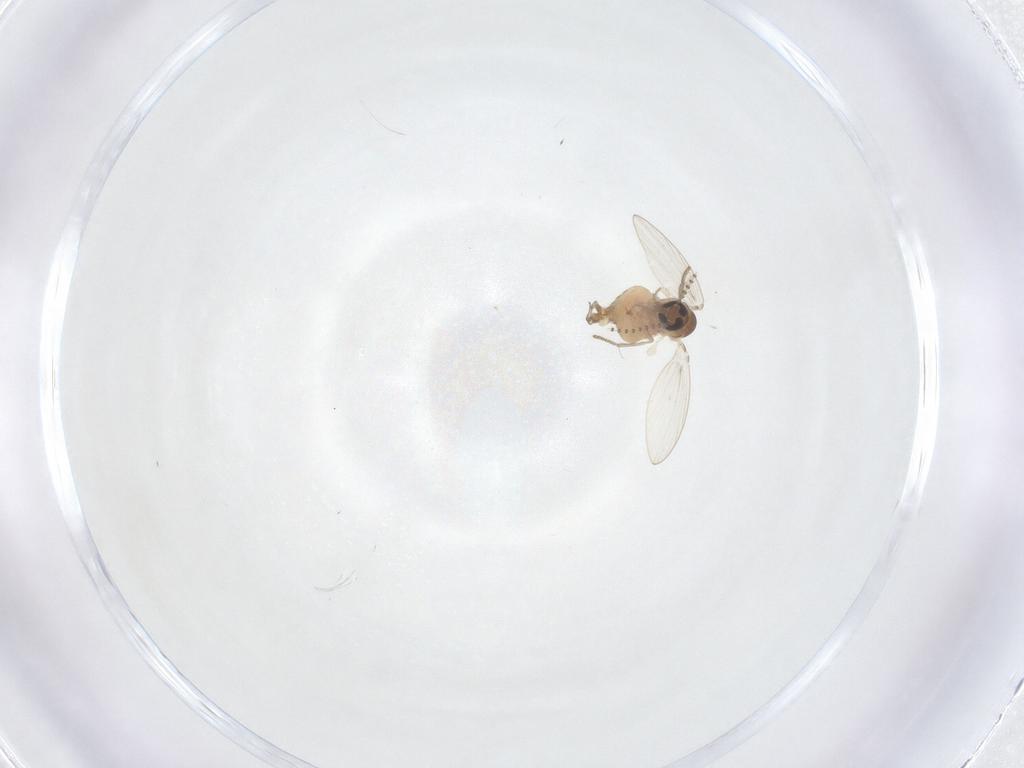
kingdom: Animalia
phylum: Arthropoda
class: Insecta
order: Diptera
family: Psychodidae
